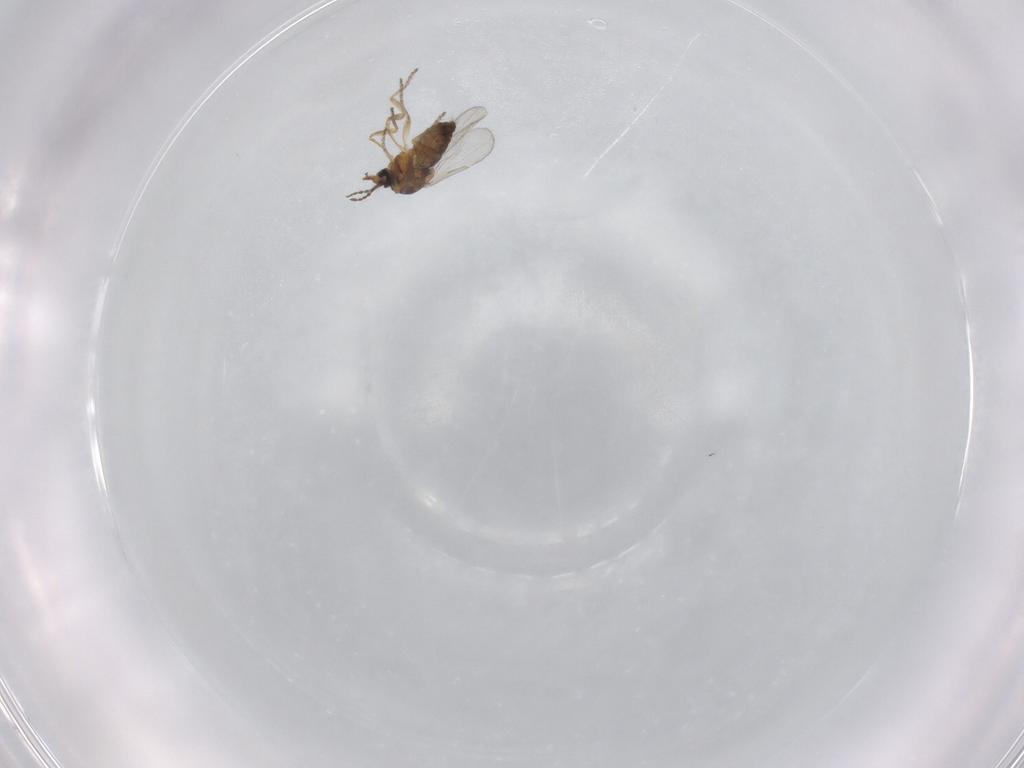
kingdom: Animalia
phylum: Arthropoda
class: Insecta
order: Diptera
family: Ceratopogonidae
